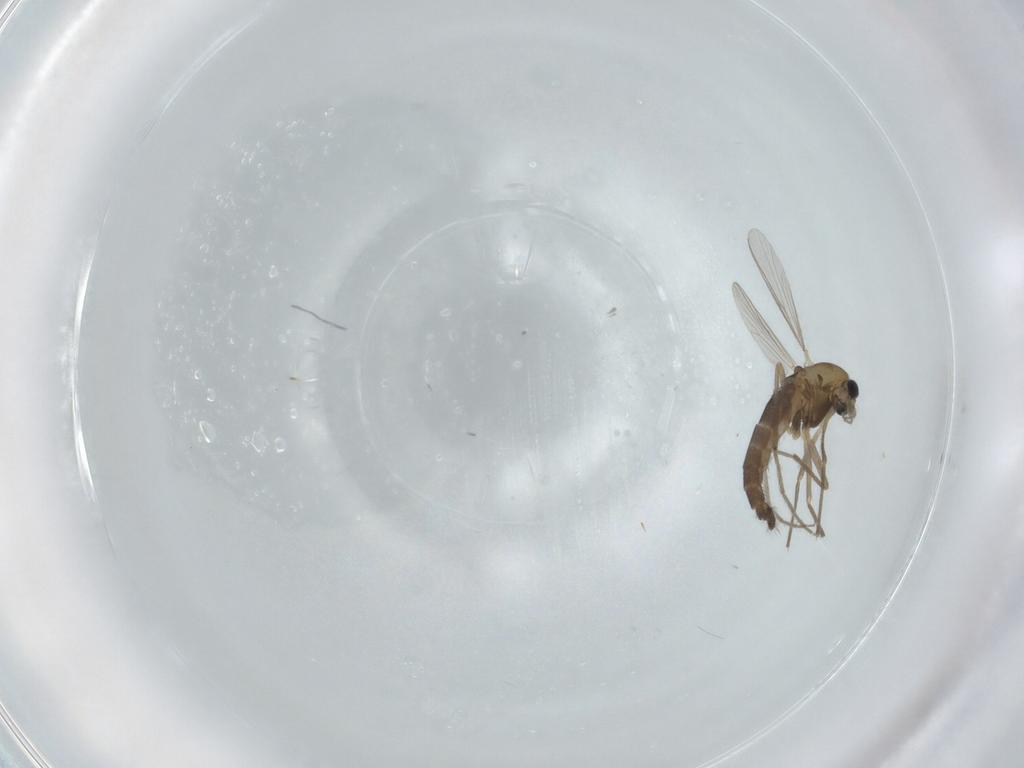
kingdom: Animalia
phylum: Arthropoda
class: Insecta
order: Diptera
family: Chironomidae
